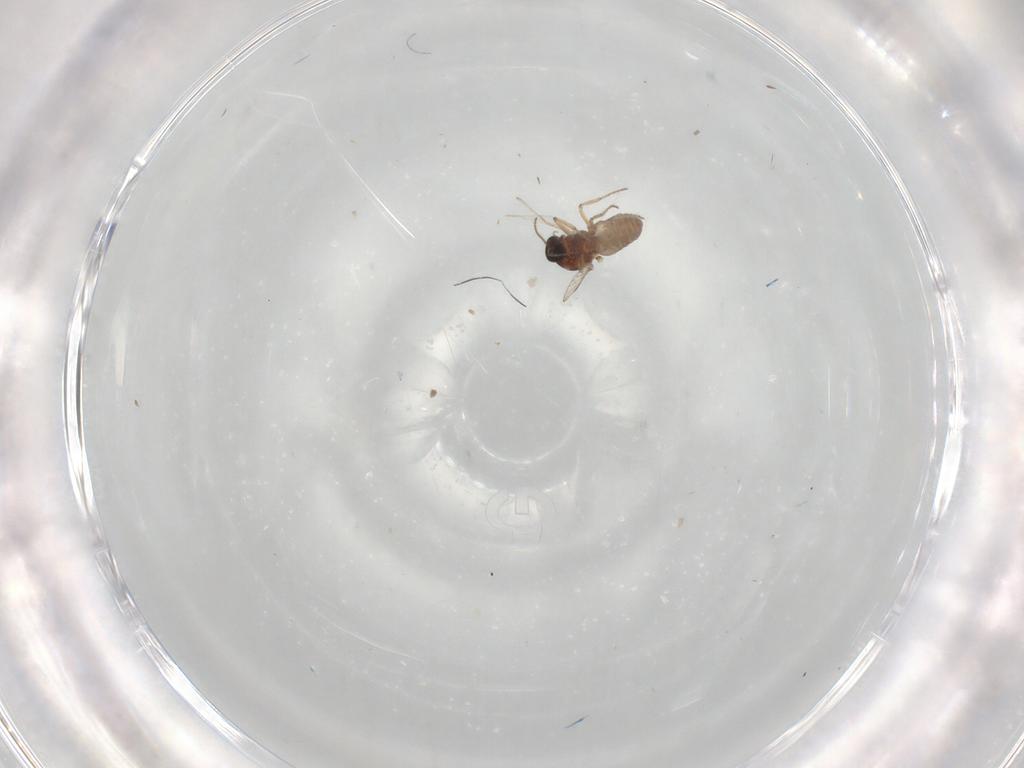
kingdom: Animalia
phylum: Arthropoda
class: Insecta
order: Diptera
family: Ceratopogonidae
